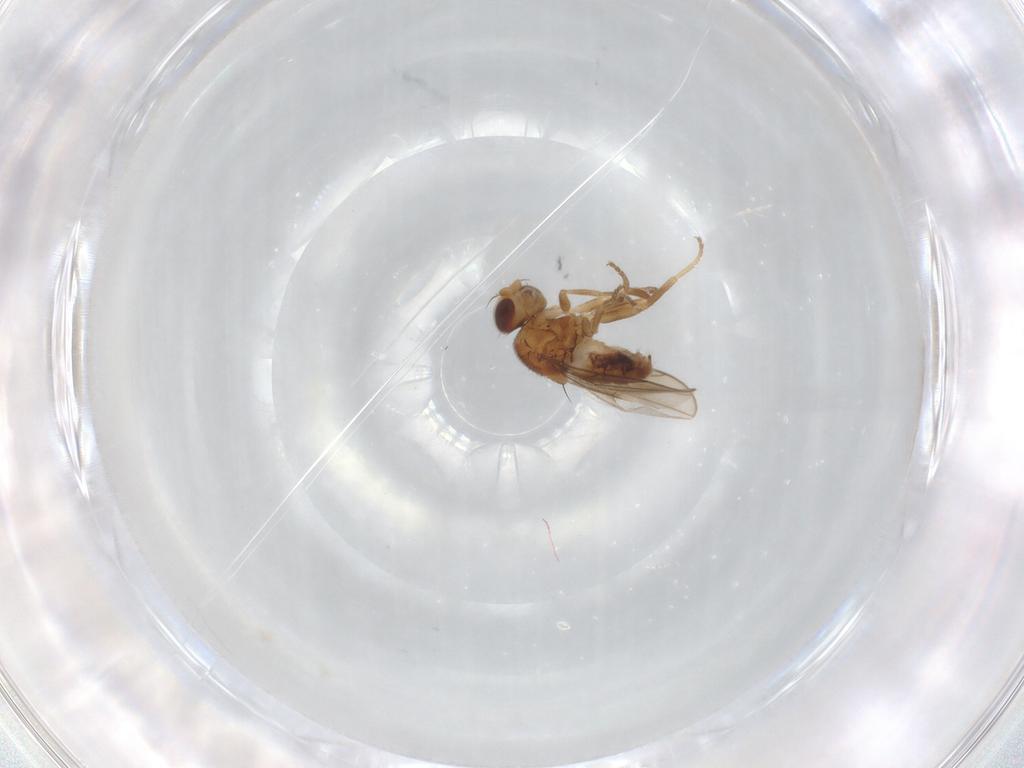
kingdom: Animalia
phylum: Arthropoda
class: Insecta
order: Diptera
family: Chloropidae
